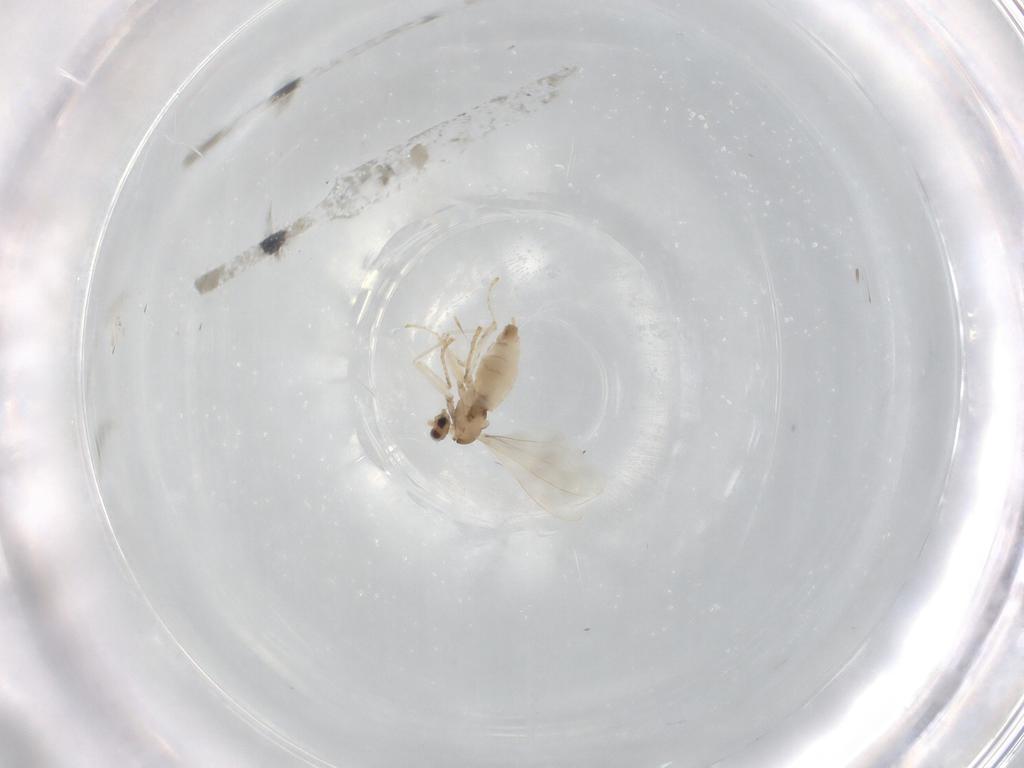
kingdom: Animalia
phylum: Arthropoda
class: Insecta
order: Diptera
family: Cecidomyiidae
